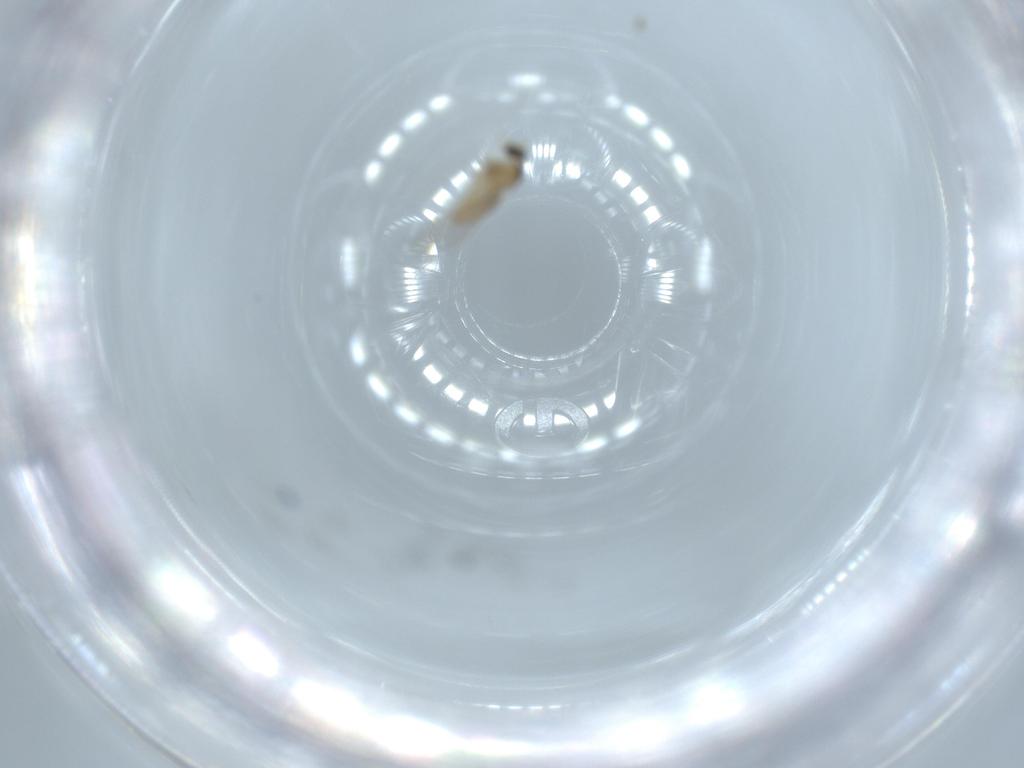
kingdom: Animalia
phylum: Arthropoda
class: Insecta
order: Diptera
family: Cecidomyiidae
